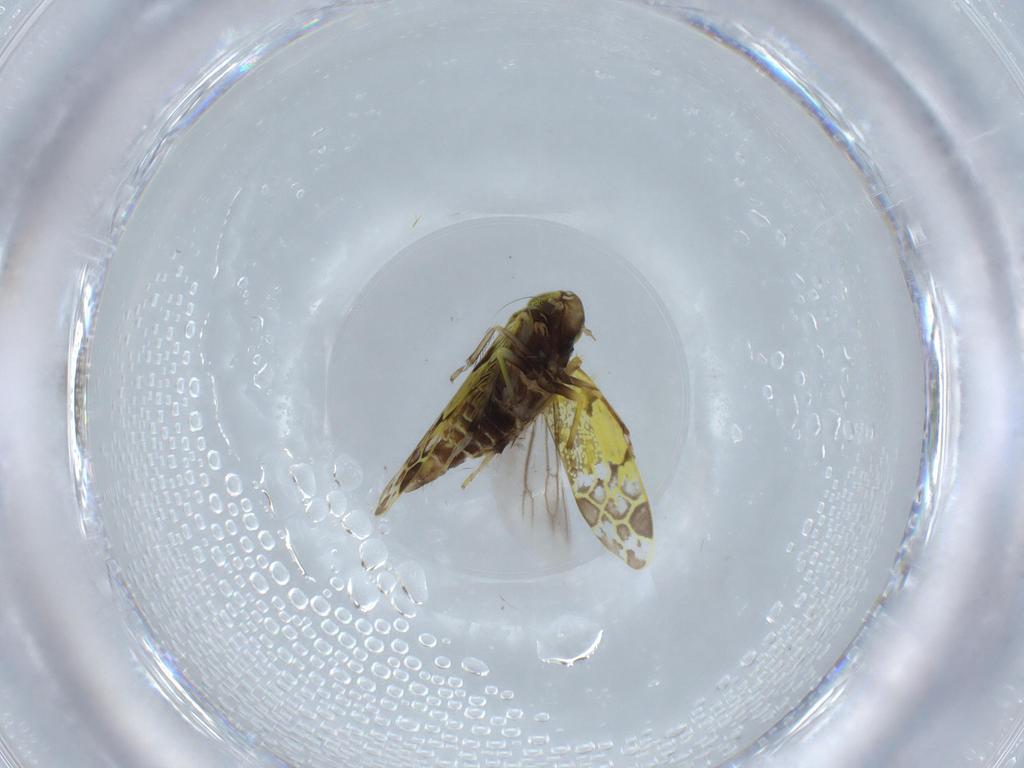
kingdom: Animalia
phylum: Arthropoda
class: Insecta
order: Hemiptera
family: Cicadellidae
